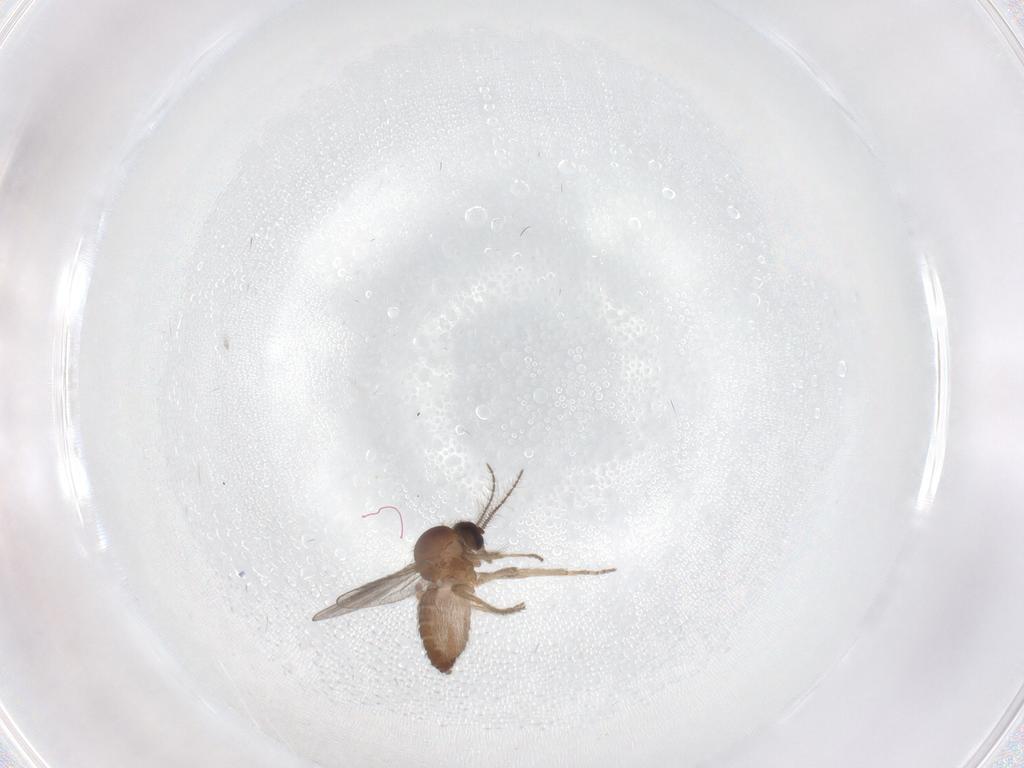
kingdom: Animalia
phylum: Arthropoda
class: Insecta
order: Diptera
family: Ceratopogonidae
